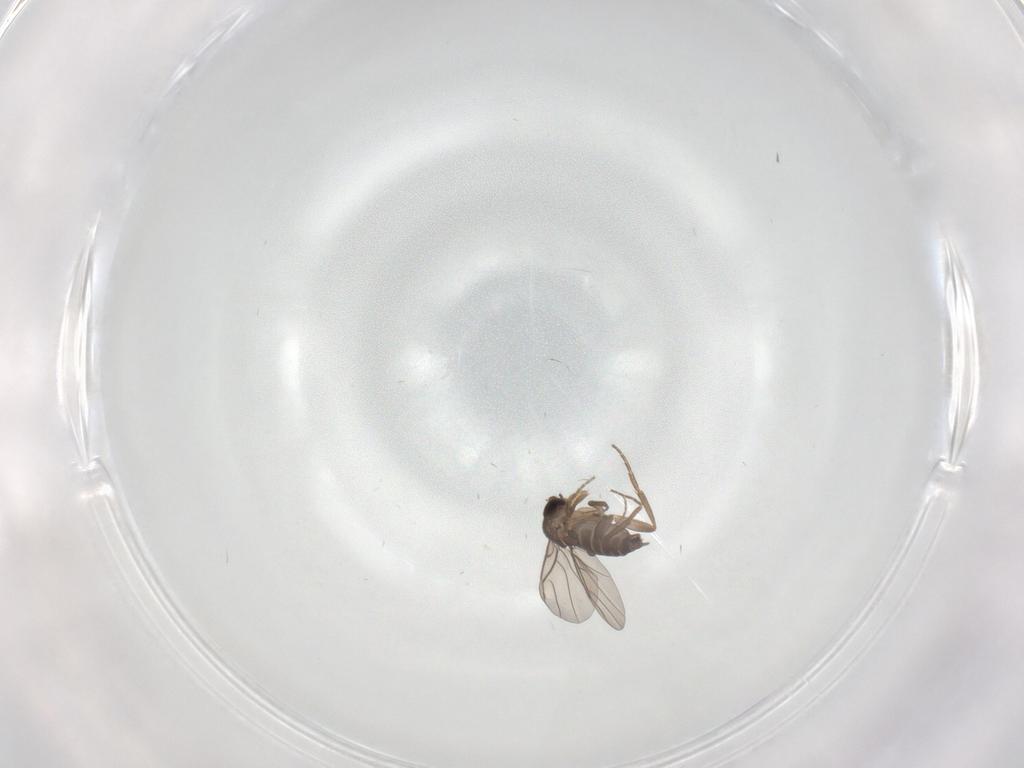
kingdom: Animalia
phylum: Arthropoda
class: Insecta
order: Diptera
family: Phoridae
